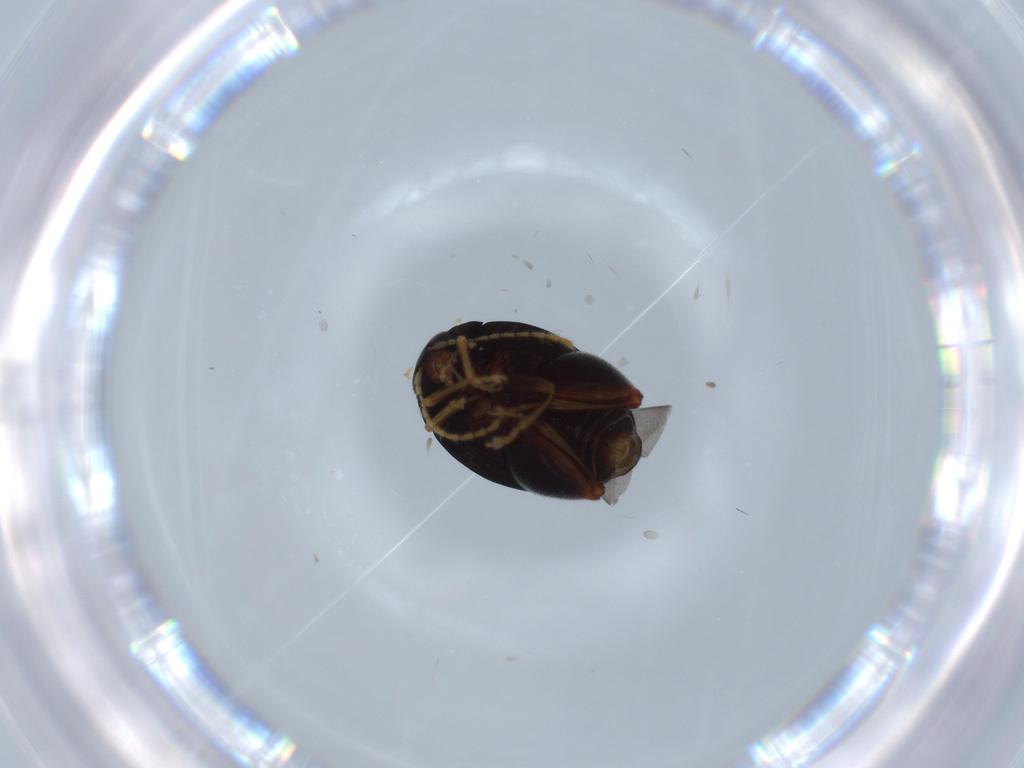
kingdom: Animalia
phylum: Arthropoda
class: Insecta
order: Coleoptera
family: Chrysomelidae
